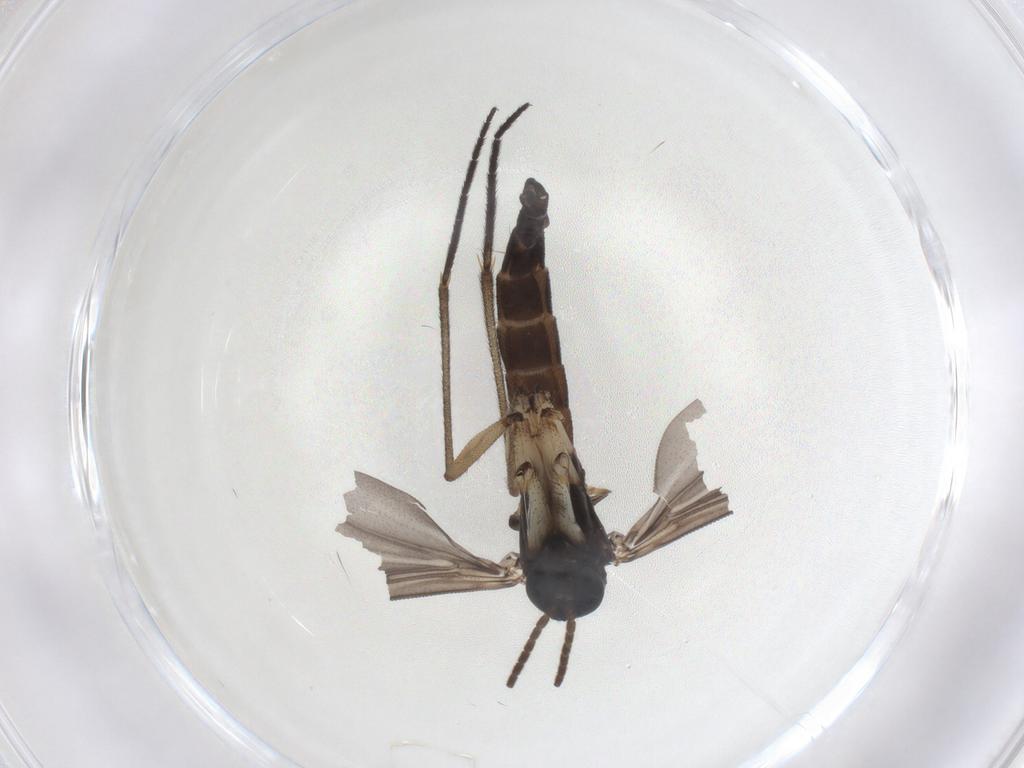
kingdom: Animalia
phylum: Arthropoda
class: Insecta
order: Diptera
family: Sciaridae
